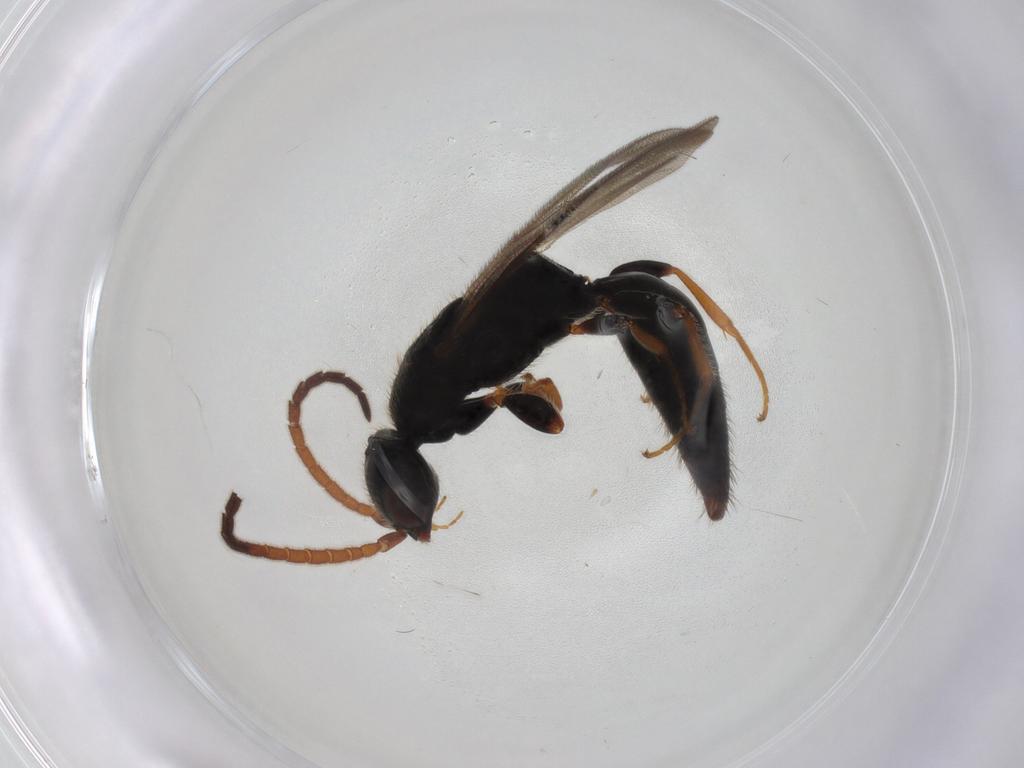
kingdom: Animalia
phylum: Arthropoda
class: Insecta
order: Hymenoptera
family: Bethylidae
